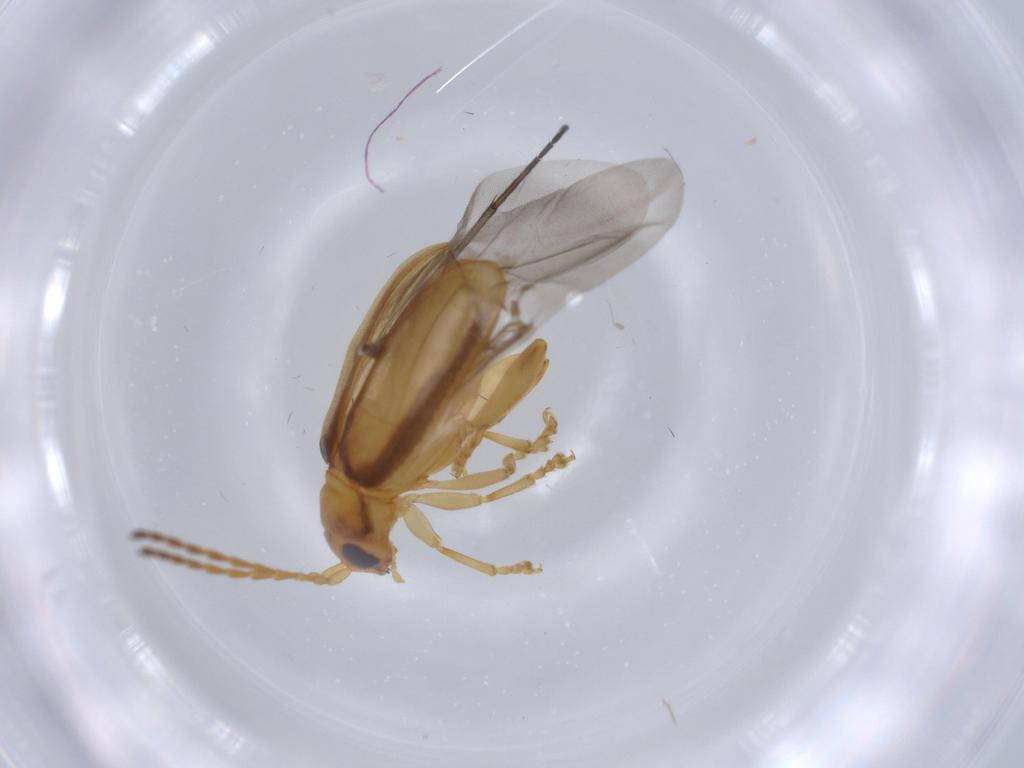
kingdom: Animalia
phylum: Arthropoda
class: Insecta
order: Coleoptera
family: Chrysomelidae
